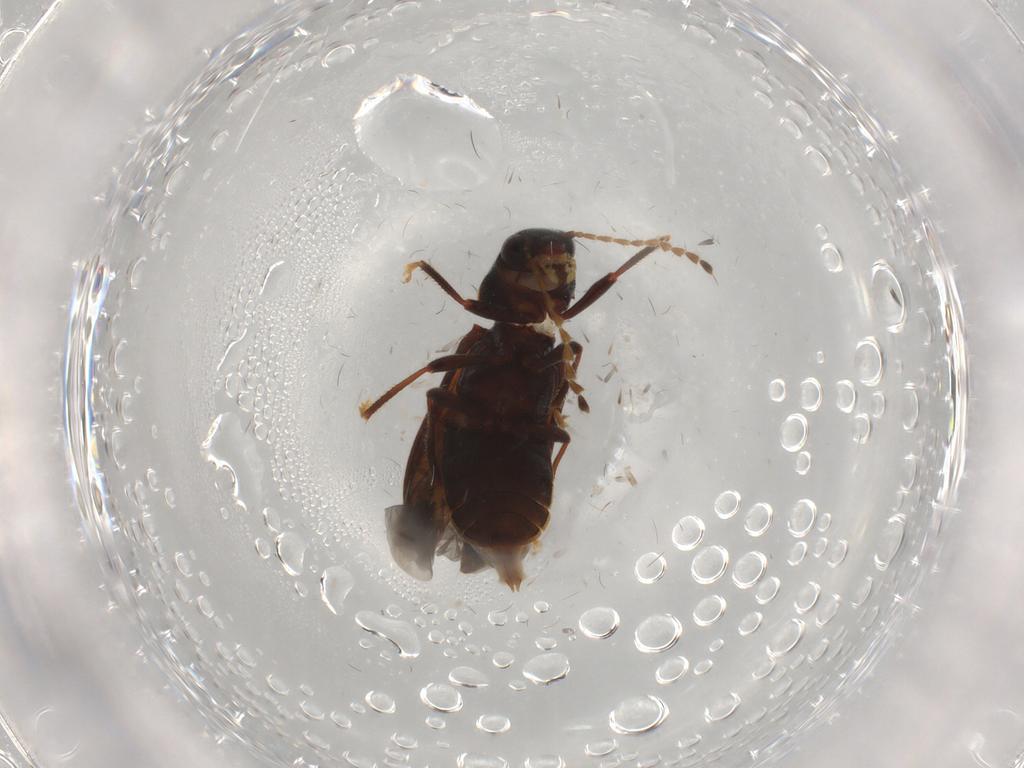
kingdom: Animalia
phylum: Arthropoda
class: Insecta
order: Coleoptera
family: Ptilodactylidae
